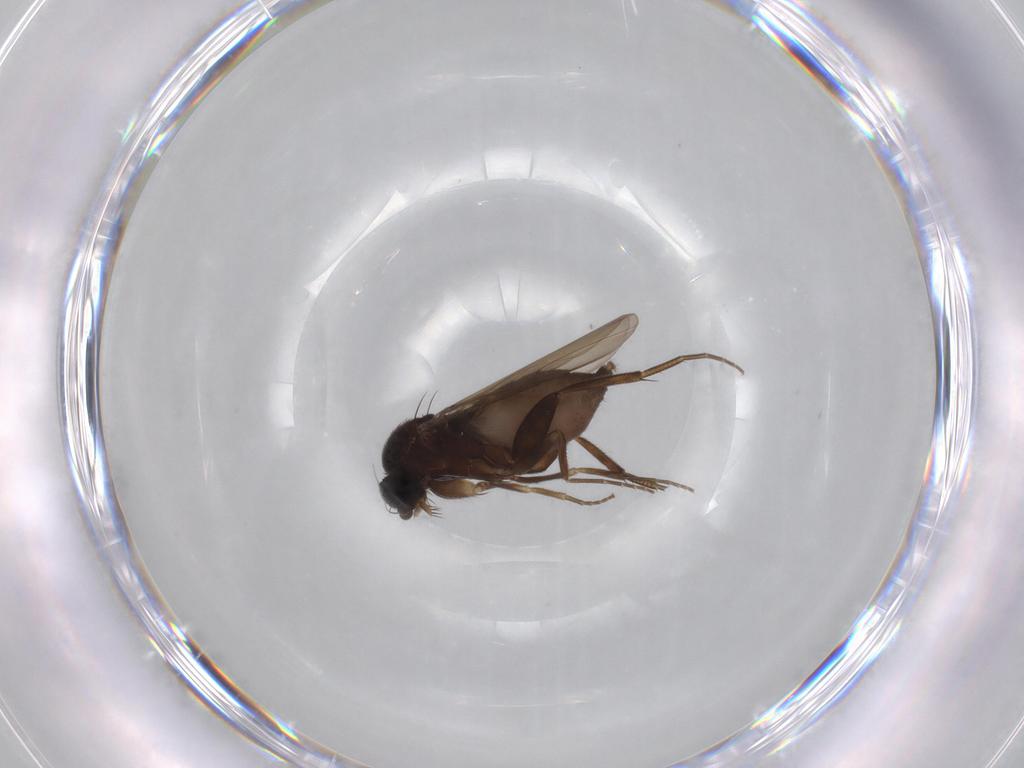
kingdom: Animalia
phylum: Arthropoda
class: Insecta
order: Diptera
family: Phoridae
